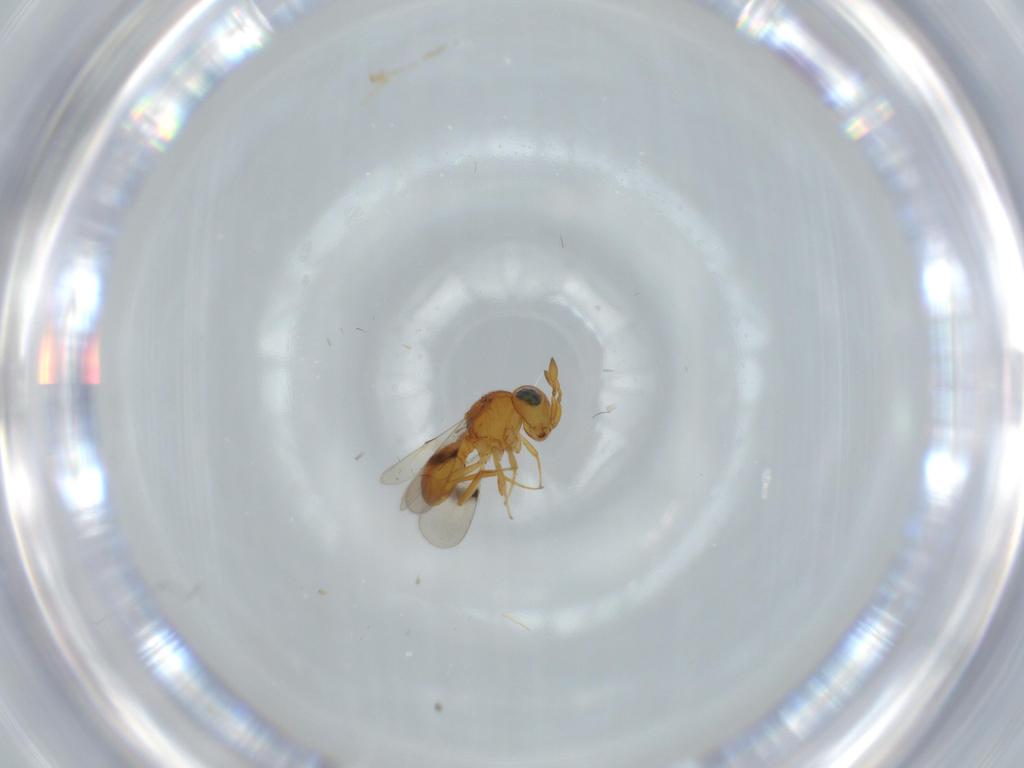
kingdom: Animalia
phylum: Arthropoda
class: Insecta
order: Hymenoptera
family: Scelionidae
